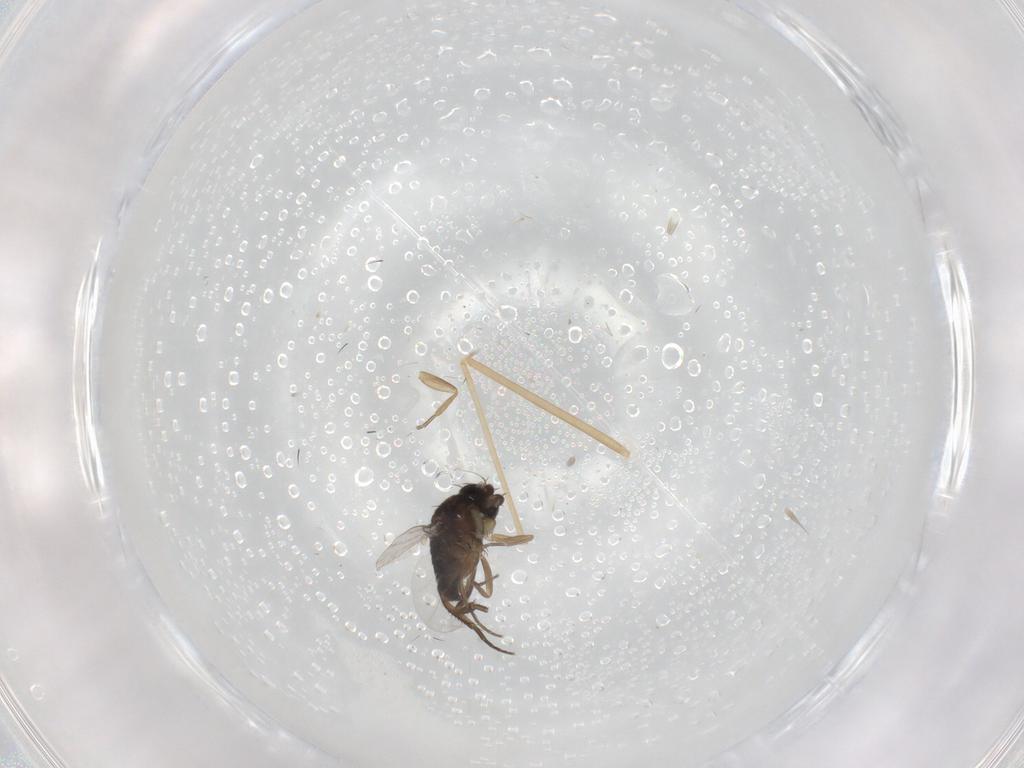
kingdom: Animalia
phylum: Arthropoda
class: Insecta
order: Diptera
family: Phoridae
